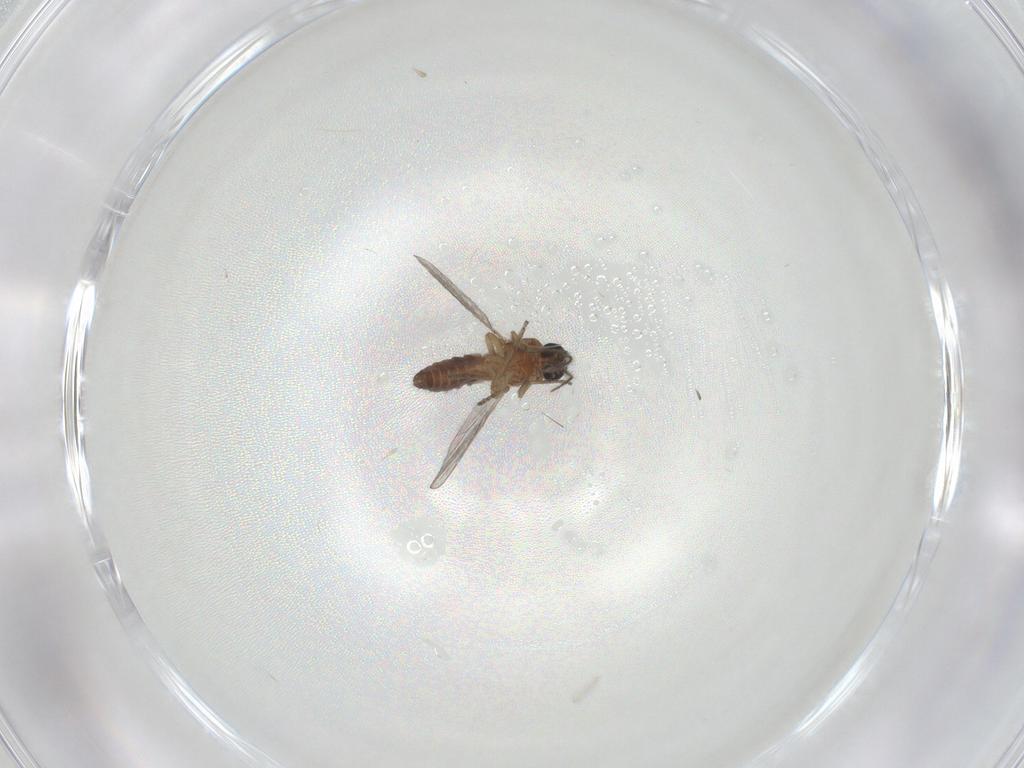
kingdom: Animalia
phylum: Arthropoda
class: Insecta
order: Diptera
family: Ceratopogonidae
